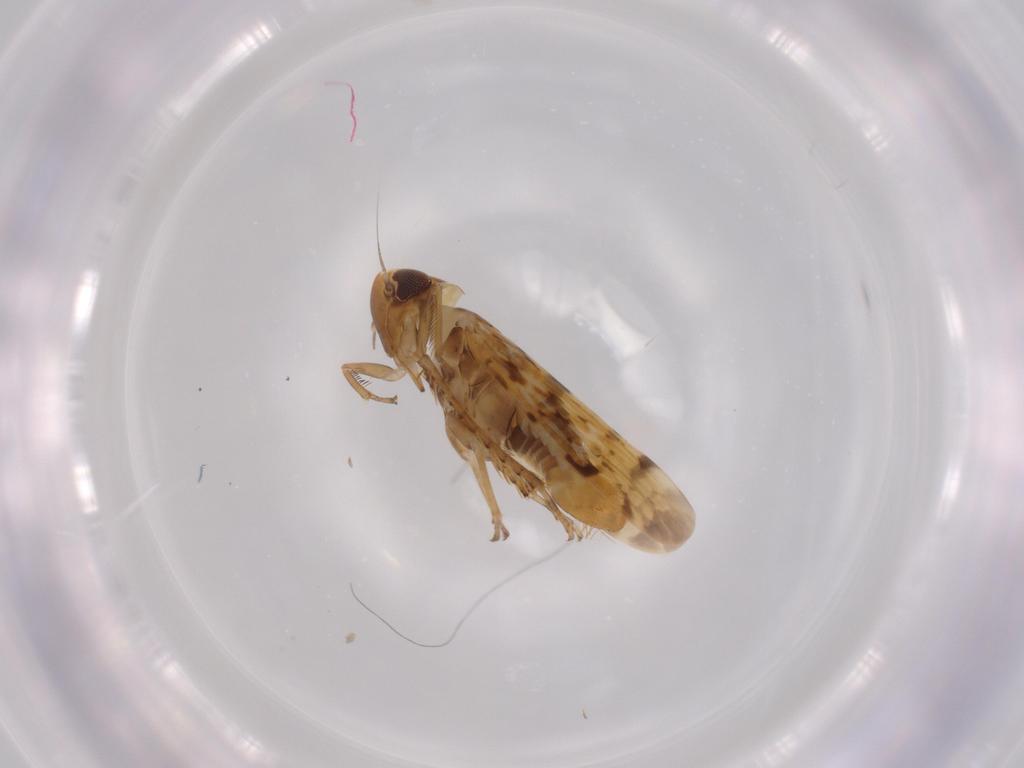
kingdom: Animalia
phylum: Arthropoda
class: Insecta
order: Hemiptera
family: Cicadellidae
